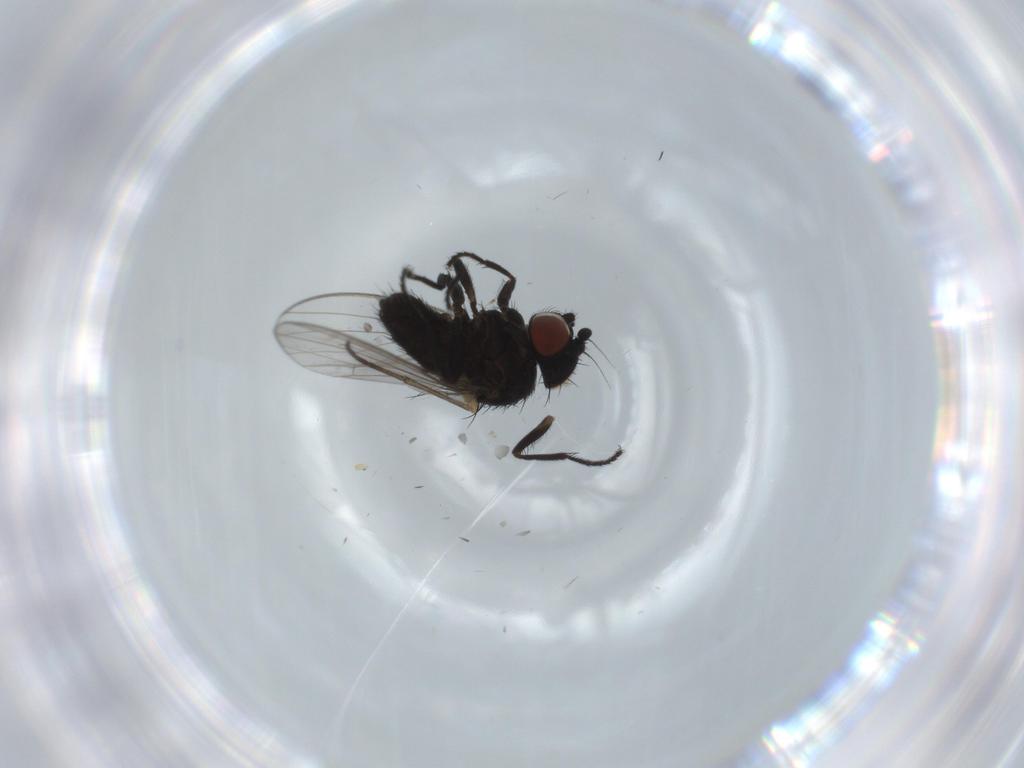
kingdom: Animalia
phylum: Arthropoda
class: Insecta
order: Diptera
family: Sciaridae
